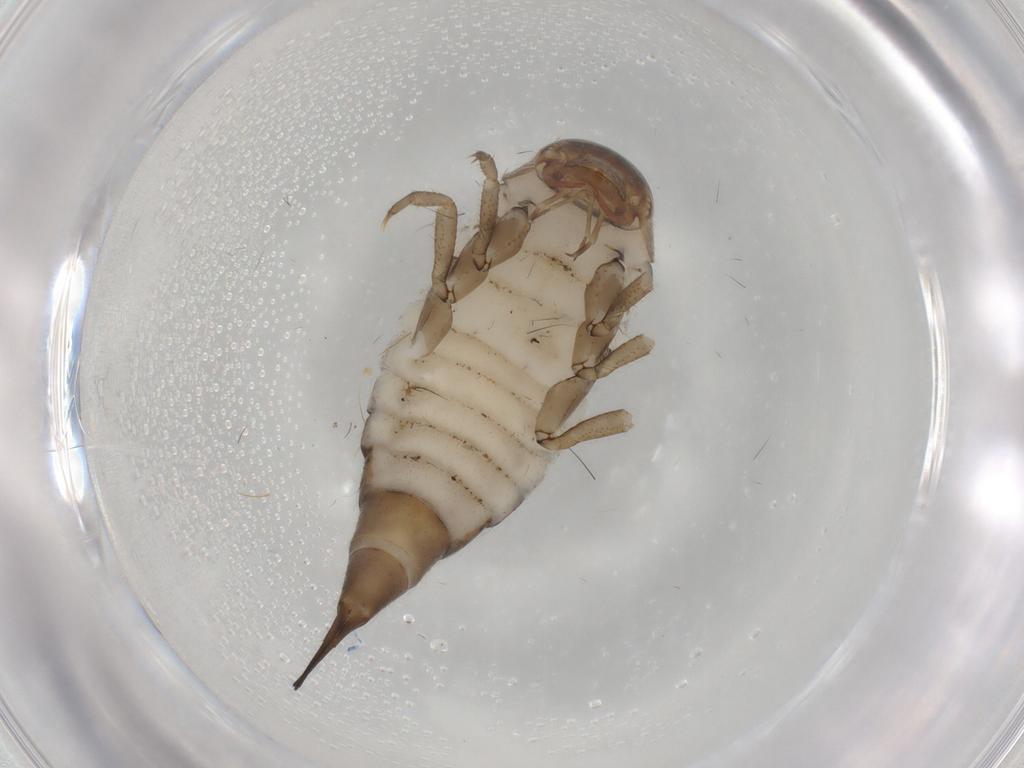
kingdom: Animalia
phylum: Arthropoda
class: Insecta
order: Coleoptera
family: Dytiscidae
